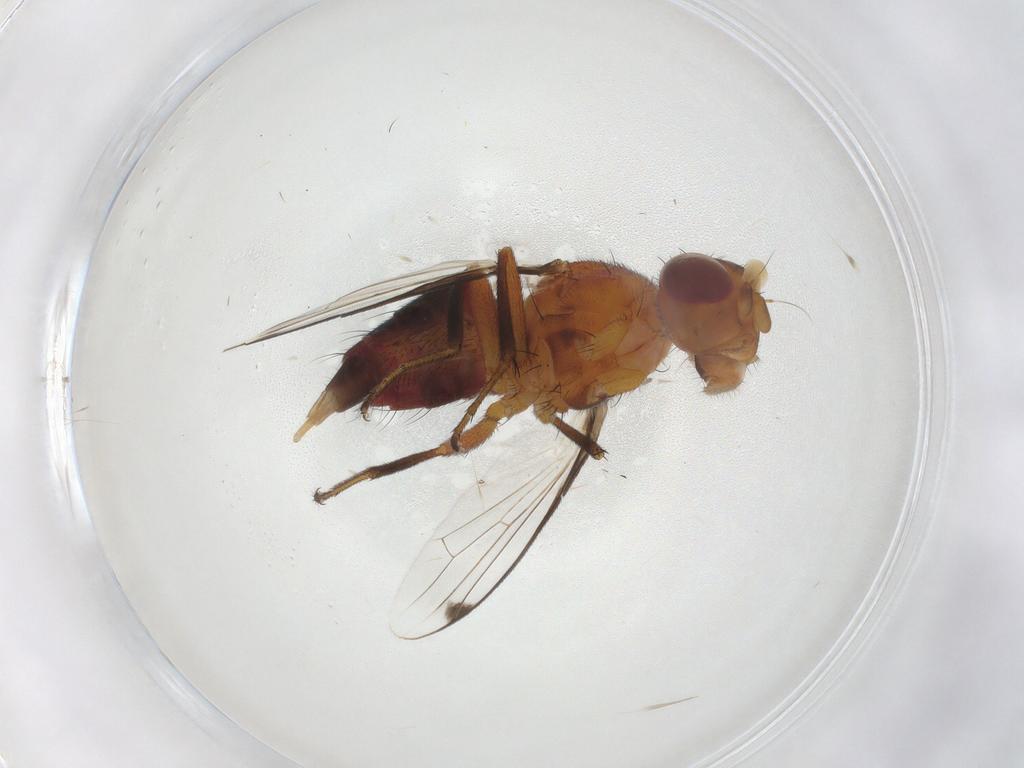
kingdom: Animalia
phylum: Arthropoda
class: Insecta
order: Diptera
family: Richardiidae
